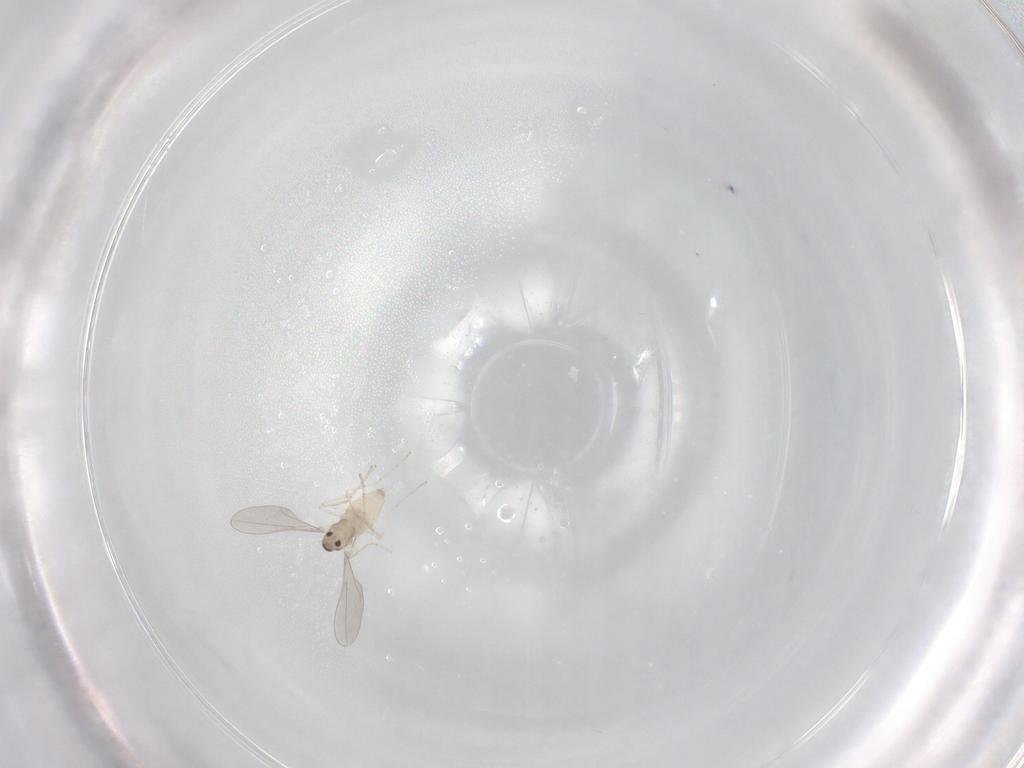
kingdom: Animalia
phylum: Arthropoda
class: Insecta
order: Diptera
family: Cecidomyiidae
